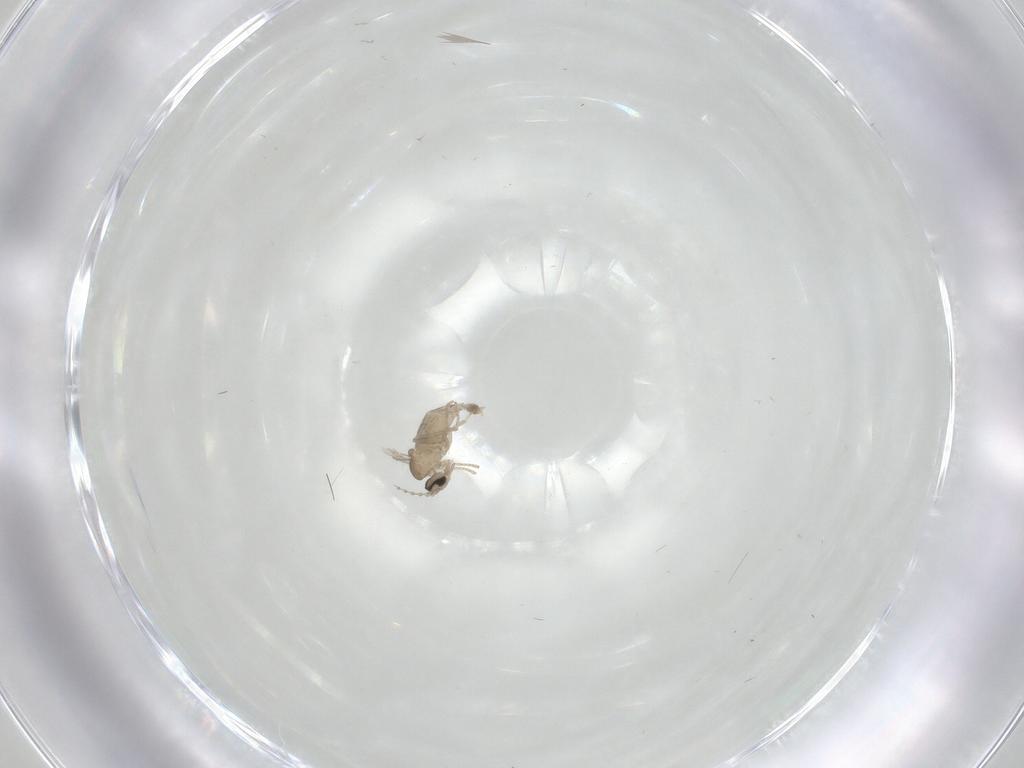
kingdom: Animalia
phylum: Arthropoda
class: Insecta
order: Diptera
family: Cecidomyiidae
